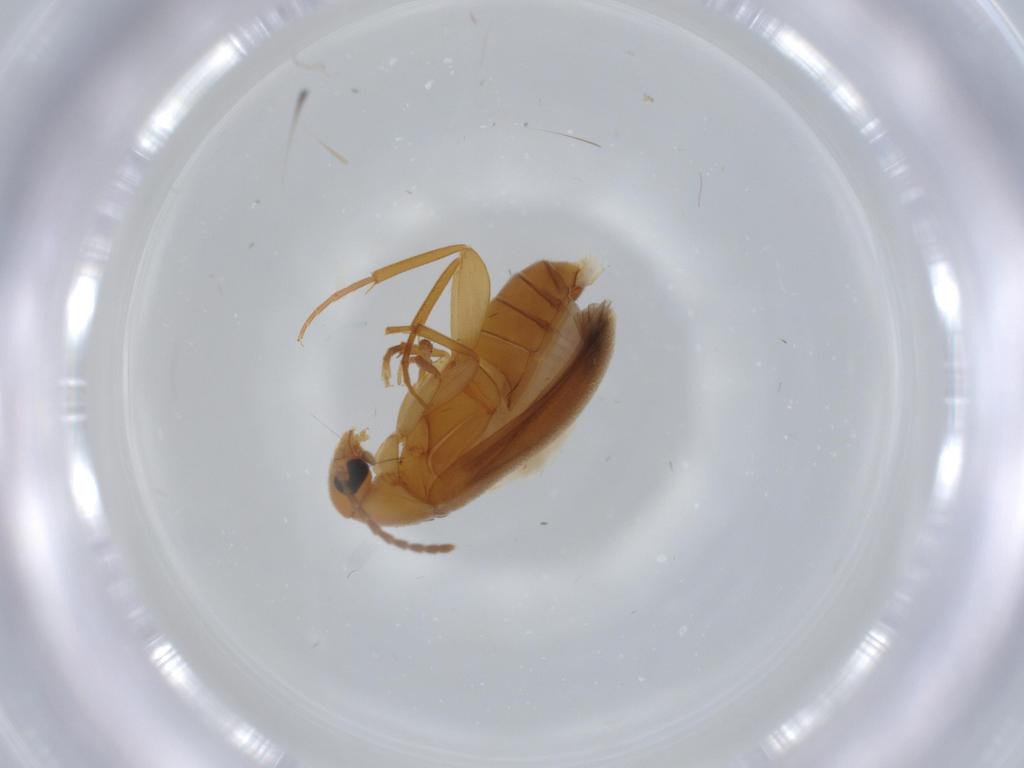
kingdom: Animalia
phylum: Arthropoda
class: Insecta
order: Coleoptera
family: Scraptiidae
